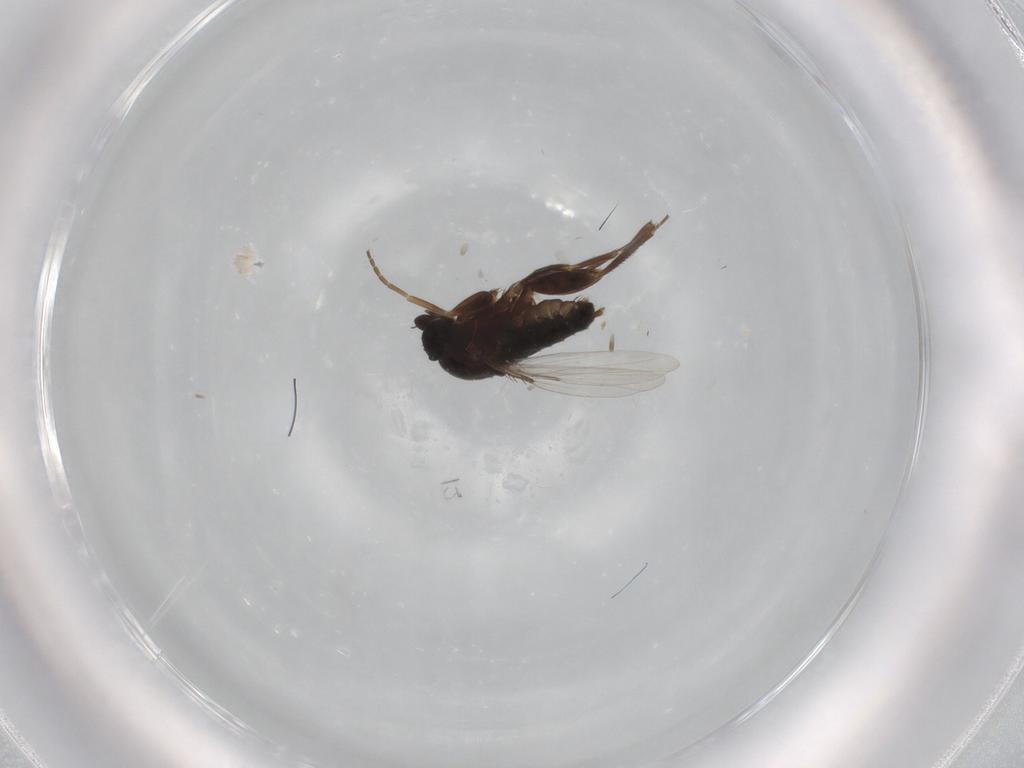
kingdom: Animalia
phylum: Arthropoda
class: Insecta
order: Diptera
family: Phoridae
